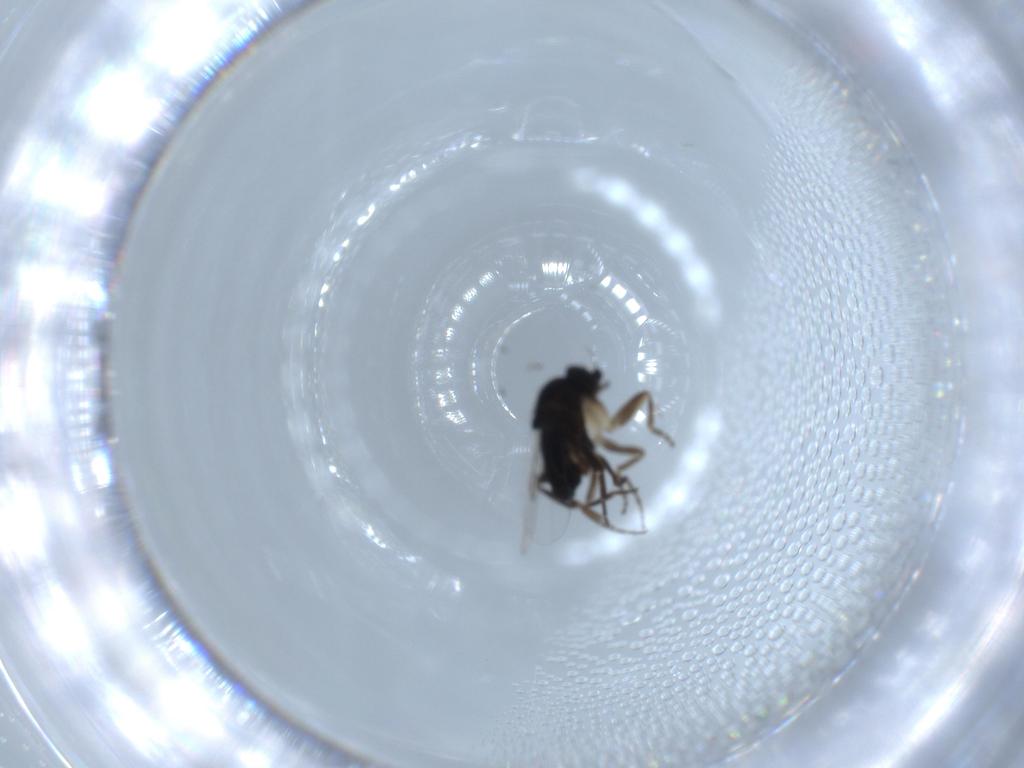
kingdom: Animalia
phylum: Arthropoda
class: Insecta
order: Diptera
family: Phoridae
